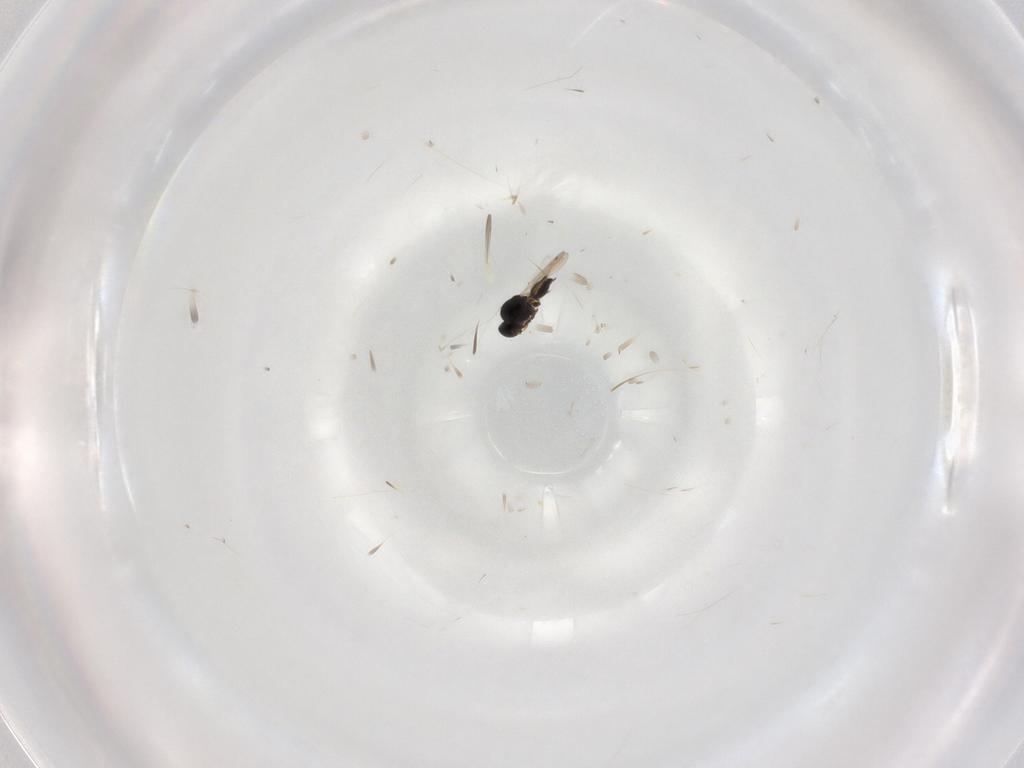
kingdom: Animalia
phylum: Arthropoda
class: Insecta
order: Hymenoptera
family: Platygastridae
